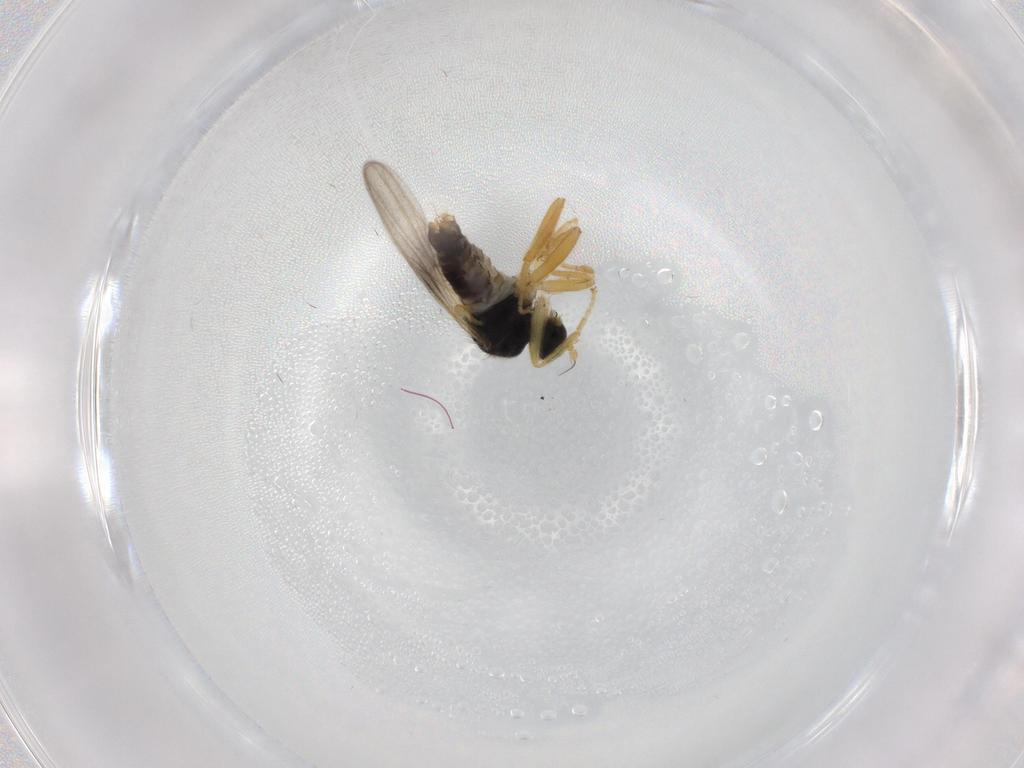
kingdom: Animalia
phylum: Arthropoda
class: Insecta
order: Diptera
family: Hybotidae
